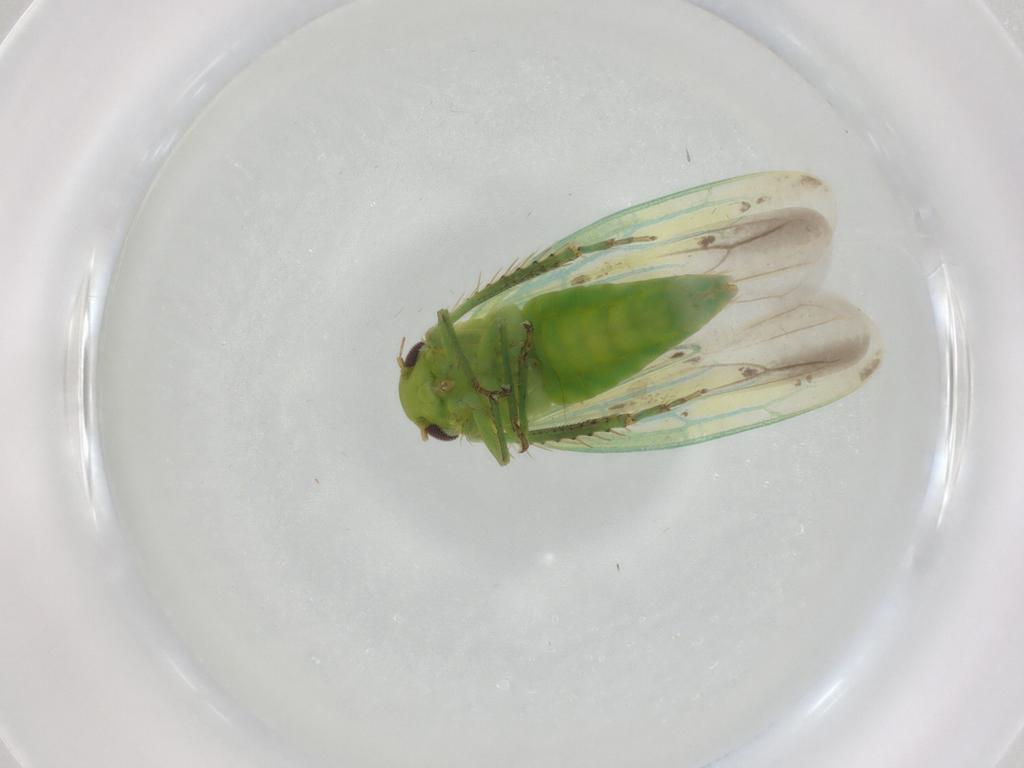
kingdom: Animalia
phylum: Arthropoda
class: Insecta
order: Hemiptera
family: Cicadellidae
